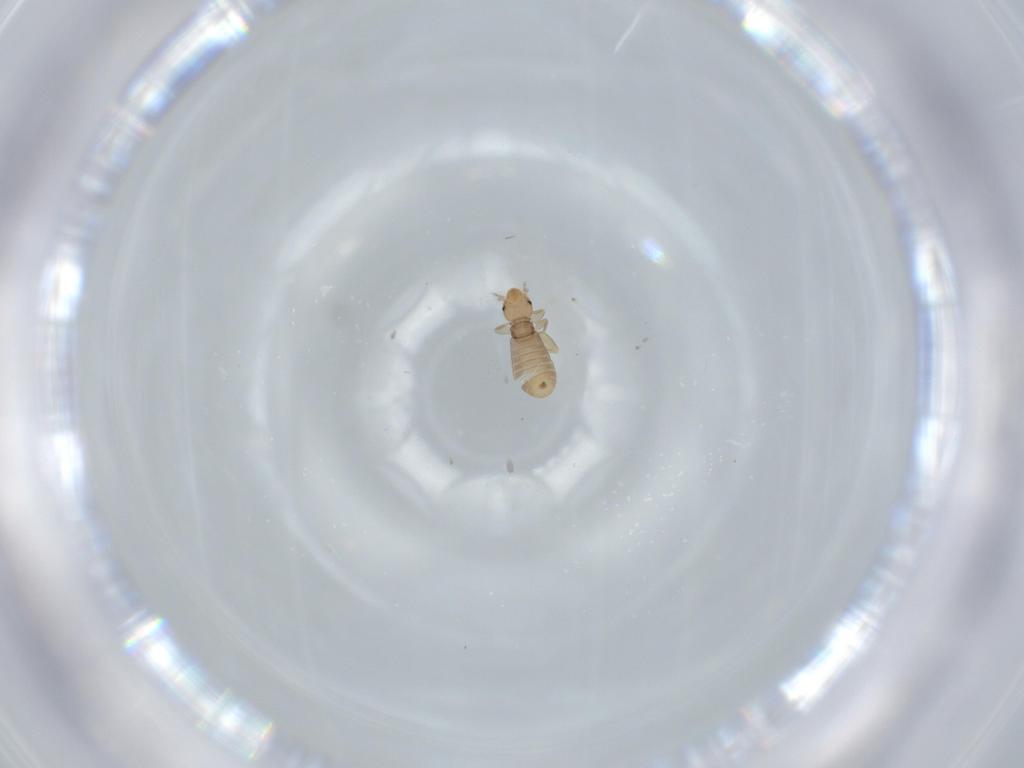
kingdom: Animalia
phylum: Arthropoda
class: Insecta
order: Psocodea
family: Liposcelididae
